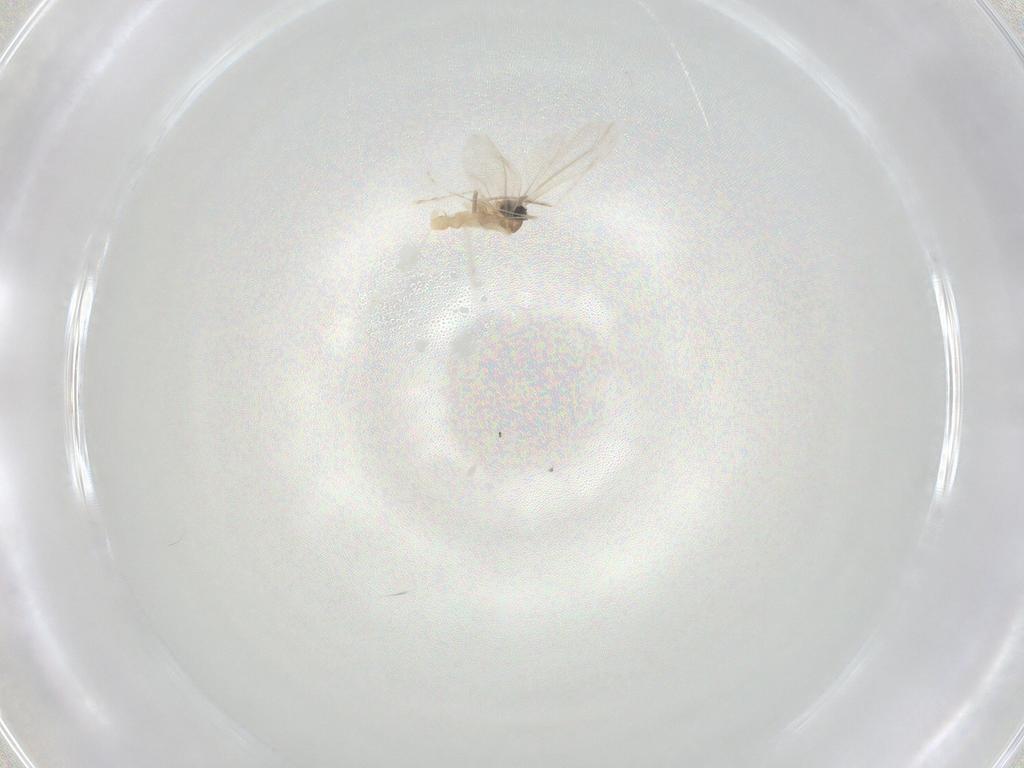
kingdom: Animalia
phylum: Arthropoda
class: Insecta
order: Diptera
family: Cecidomyiidae
